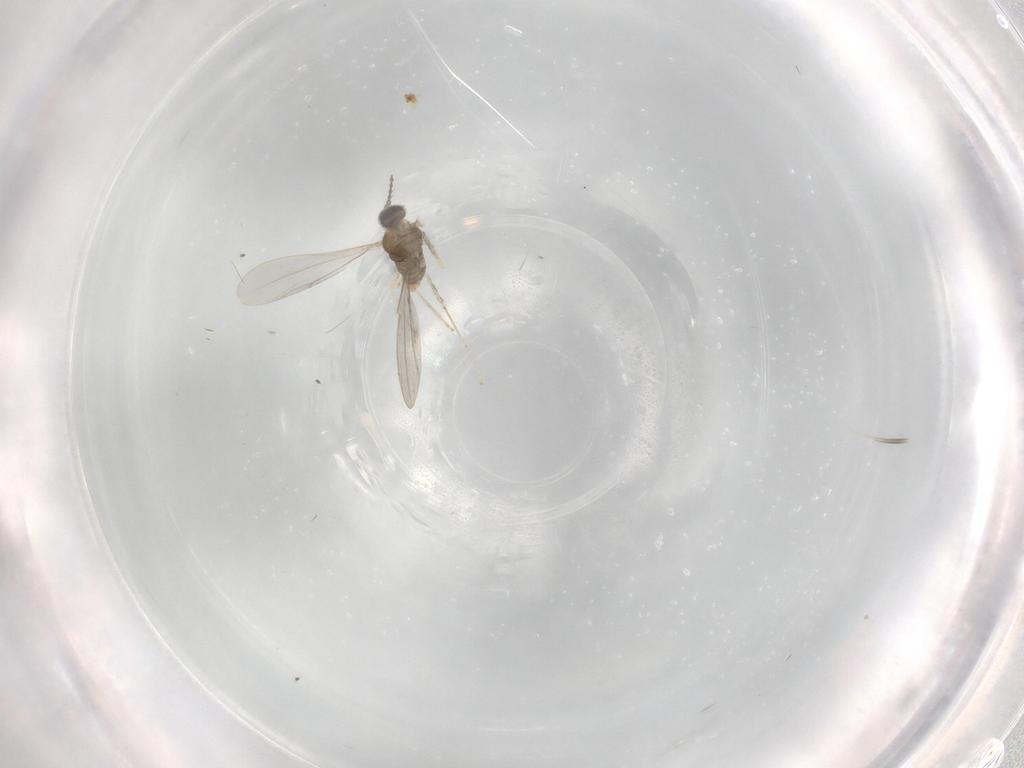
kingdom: Animalia
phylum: Arthropoda
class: Insecta
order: Diptera
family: Cecidomyiidae
